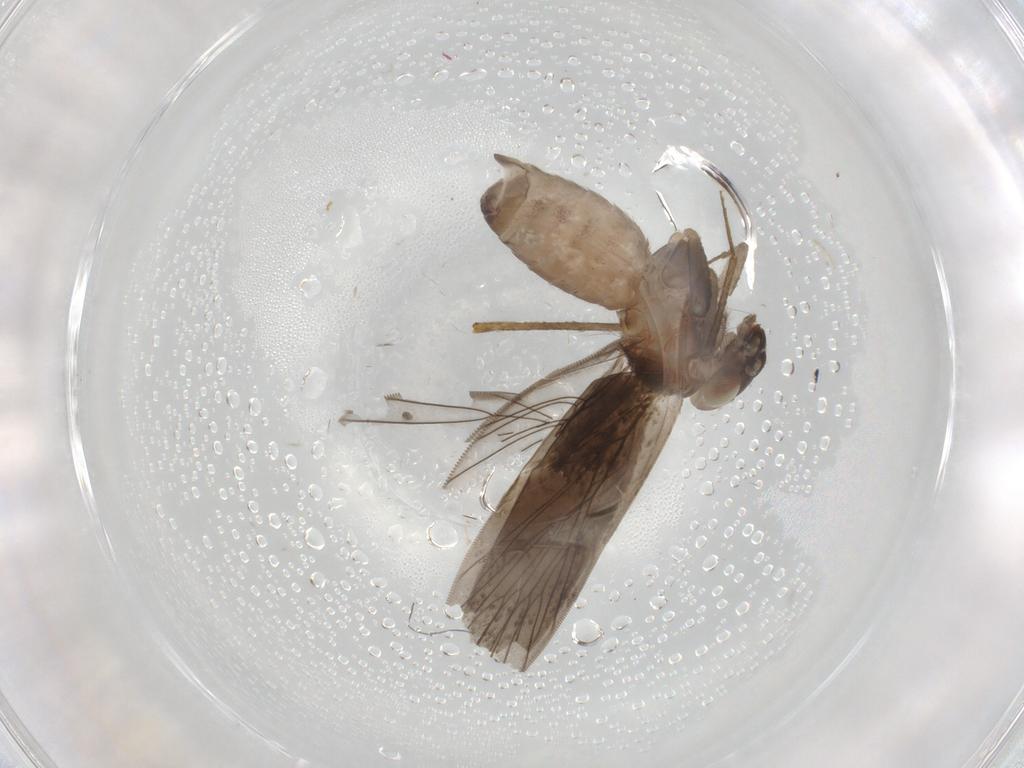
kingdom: Animalia
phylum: Arthropoda
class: Insecta
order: Psocodea
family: Lepidopsocidae
